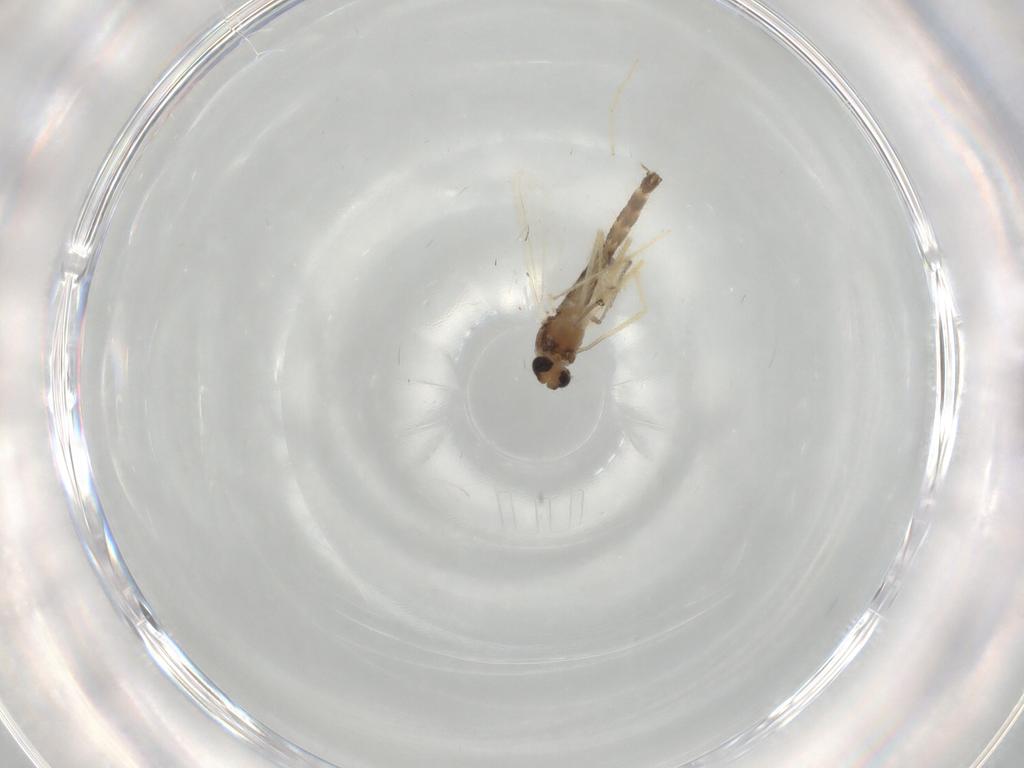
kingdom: Animalia
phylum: Arthropoda
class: Insecta
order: Diptera
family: Chironomidae
